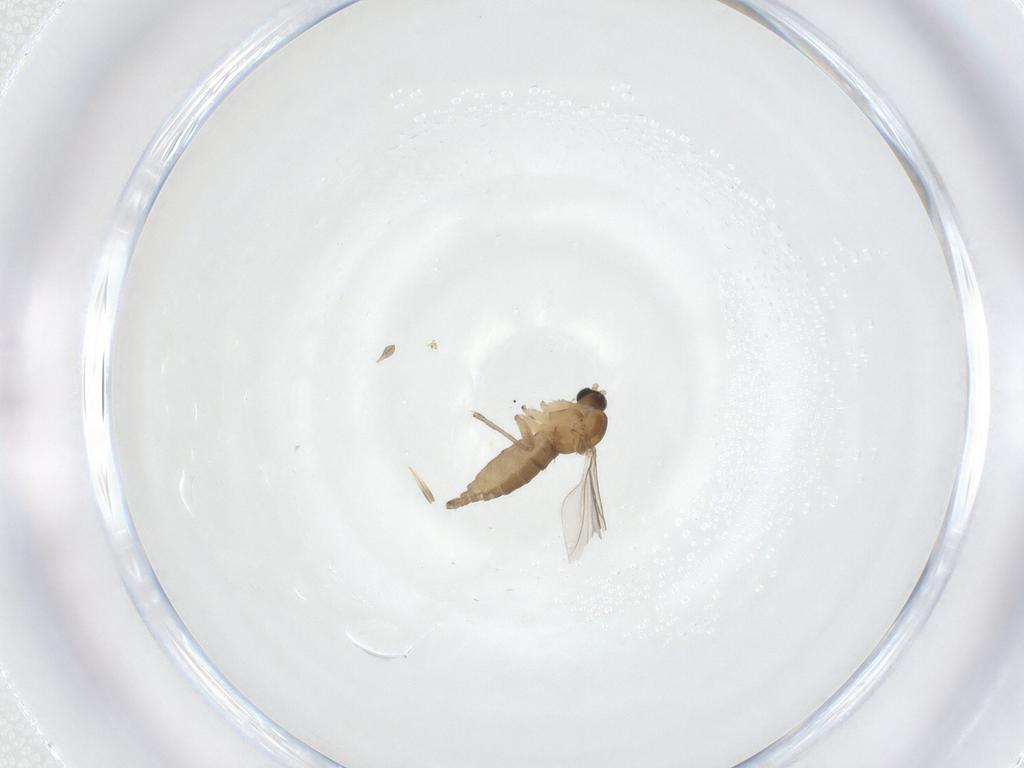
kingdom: Animalia
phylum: Arthropoda
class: Insecta
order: Diptera
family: Sciaridae
